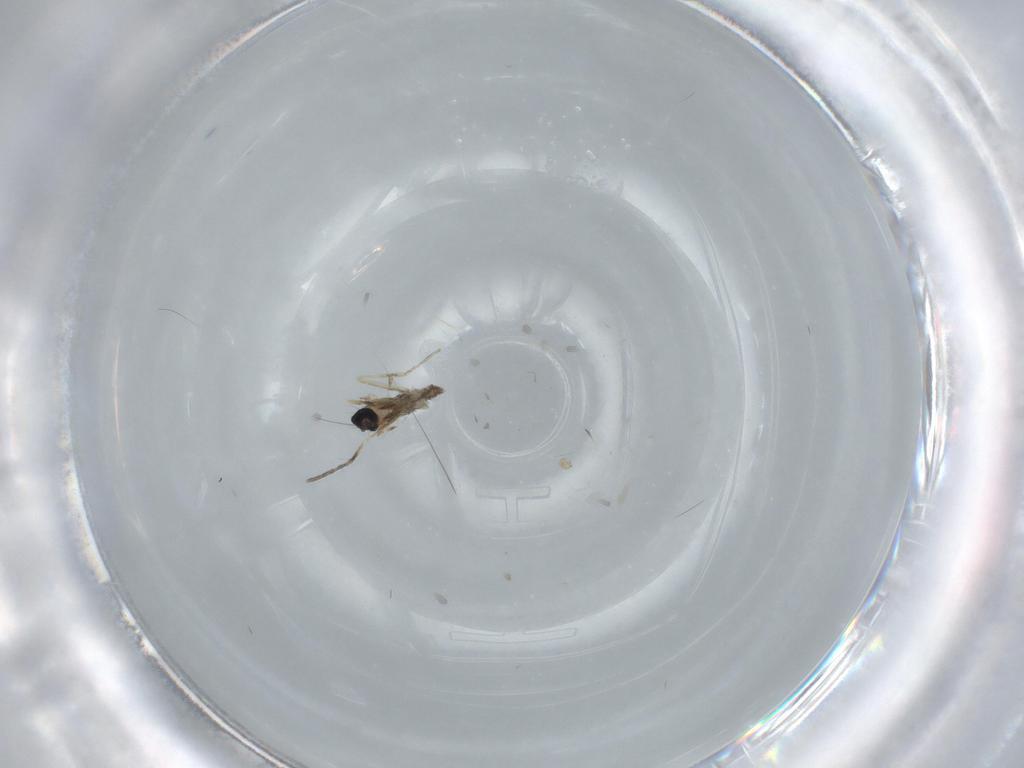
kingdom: Animalia
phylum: Arthropoda
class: Insecta
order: Diptera
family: Cecidomyiidae
